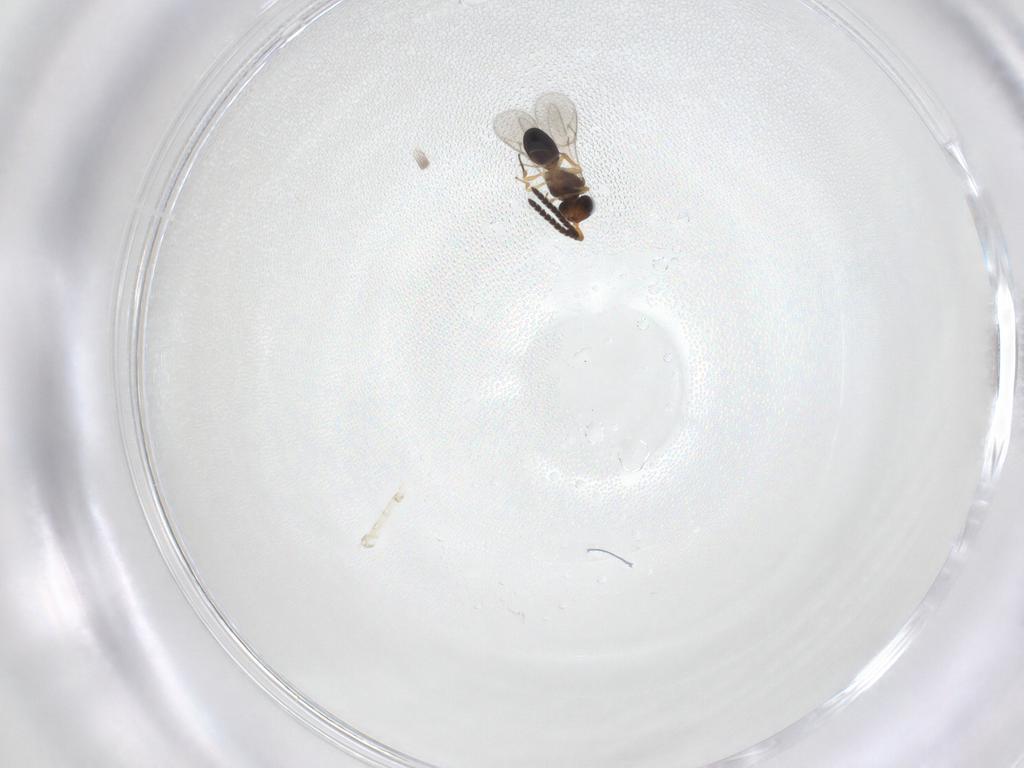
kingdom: Animalia
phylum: Arthropoda
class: Insecta
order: Hymenoptera
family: Scelionidae
